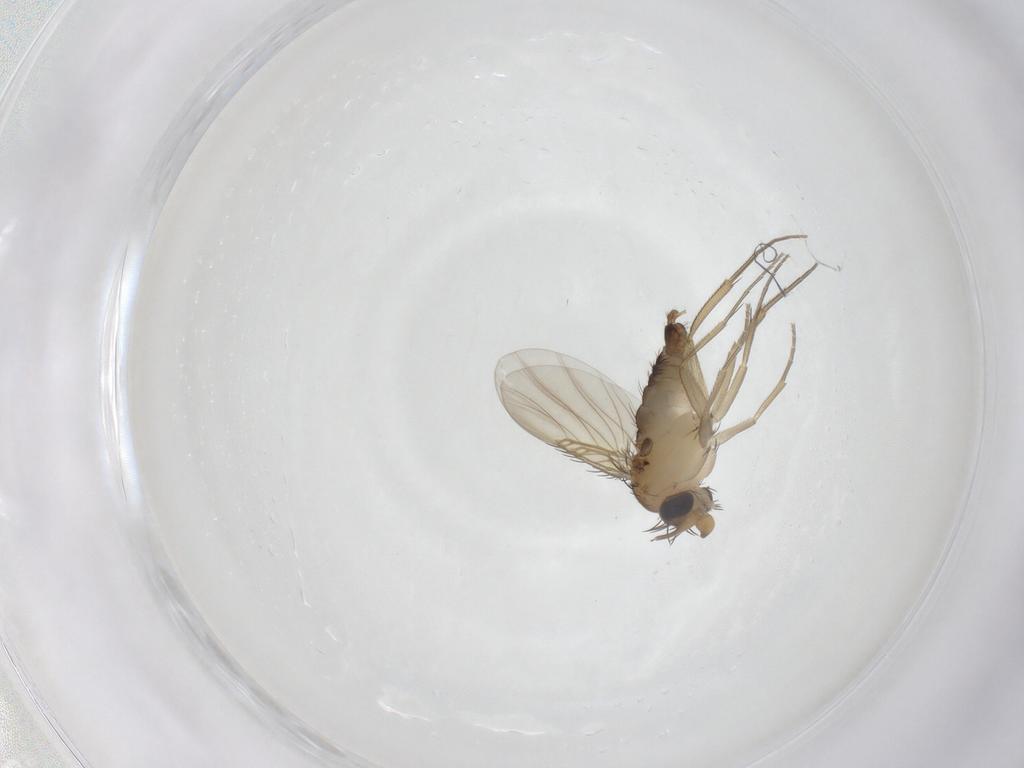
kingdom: Animalia
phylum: Arthropoda
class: Insecta
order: Diptera
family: Phoridae
